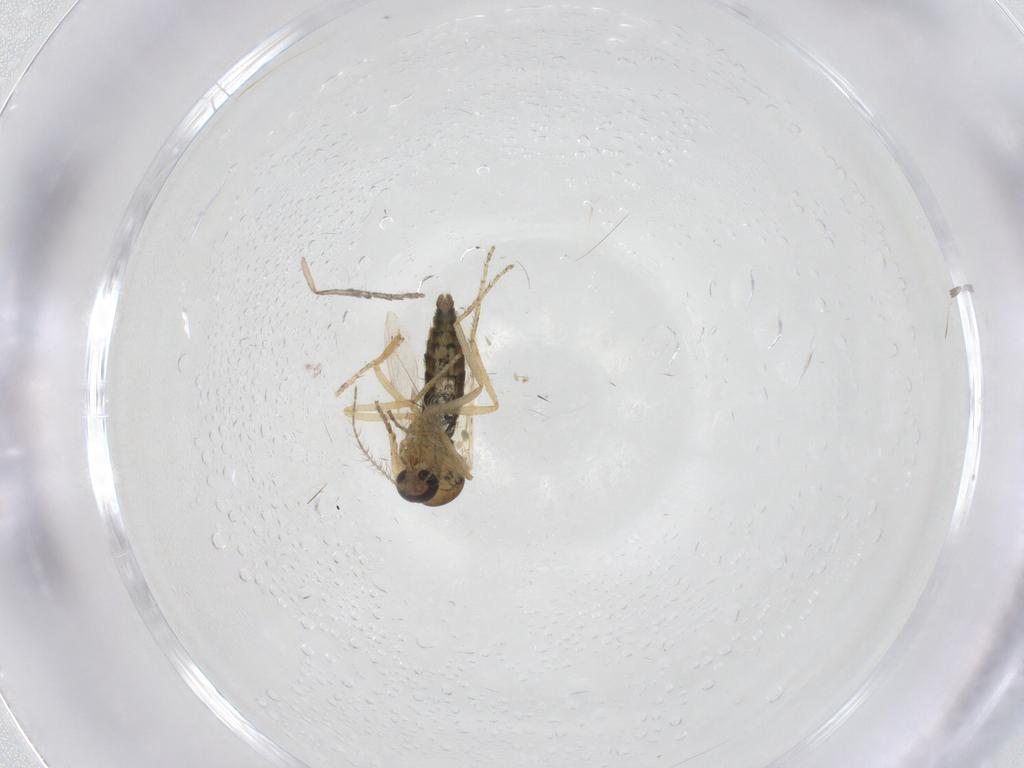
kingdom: Animalia
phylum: Arthropoda
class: Insecta
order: Diptera
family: Ceratopogonidae
